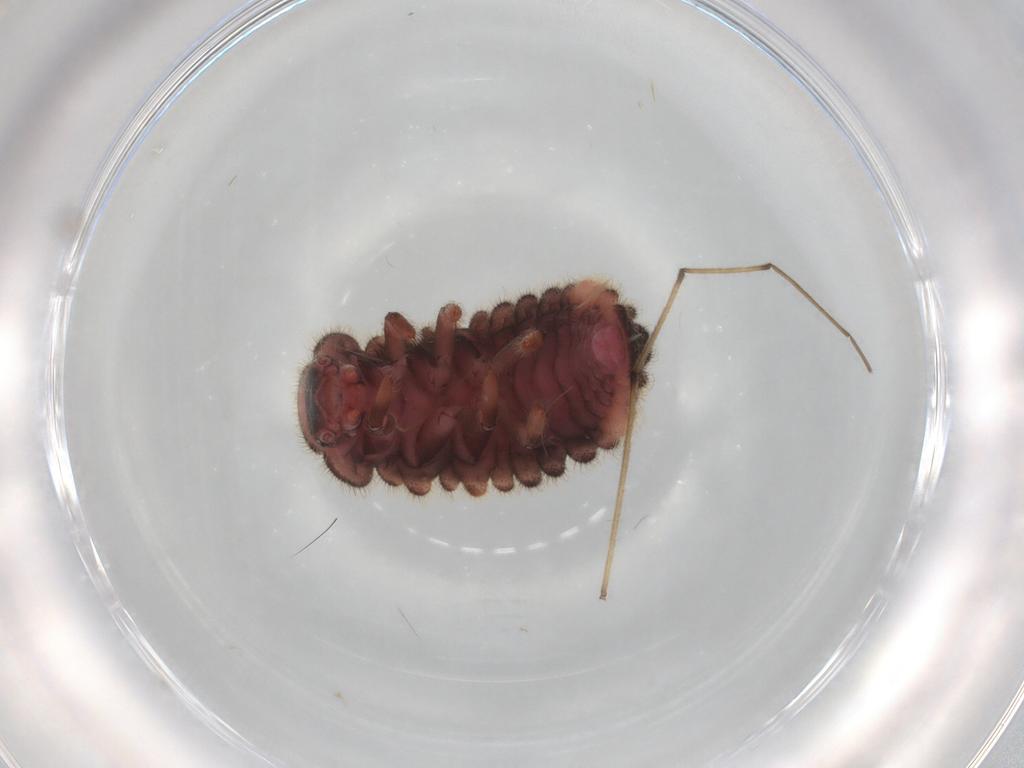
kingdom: Animalia
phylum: Arthropoda
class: Insecta
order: Coleoptera
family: Coccinellidae
